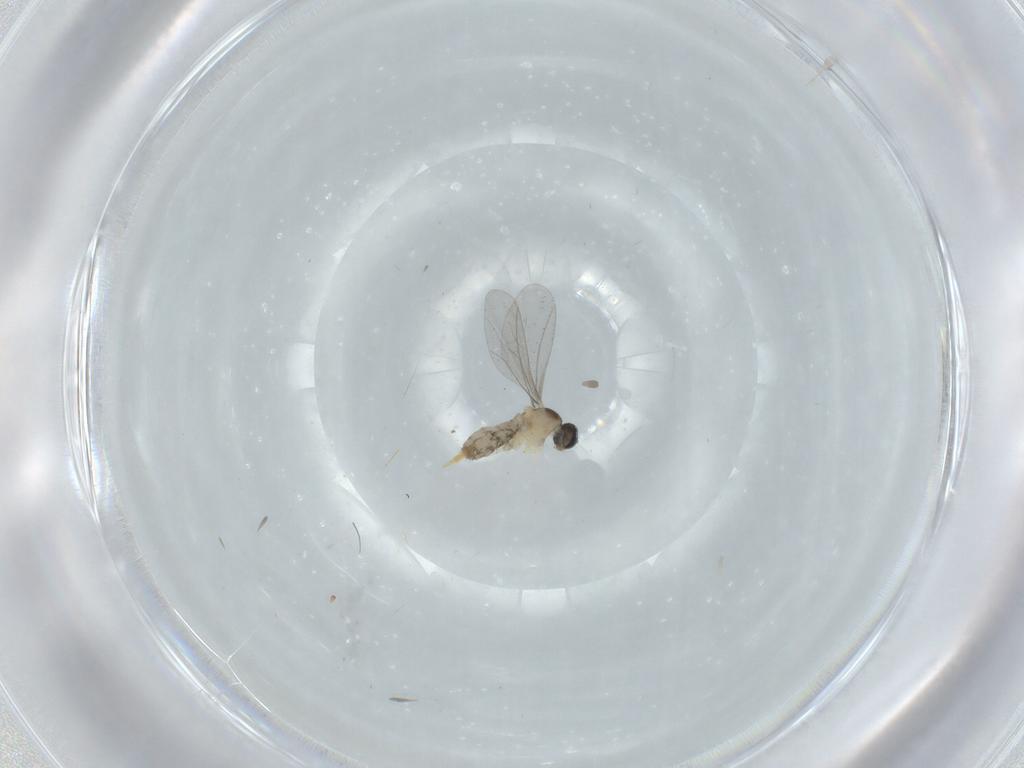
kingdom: Animalia
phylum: Arthropoda
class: Insecta
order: Diptera
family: Cecidomyiidae
